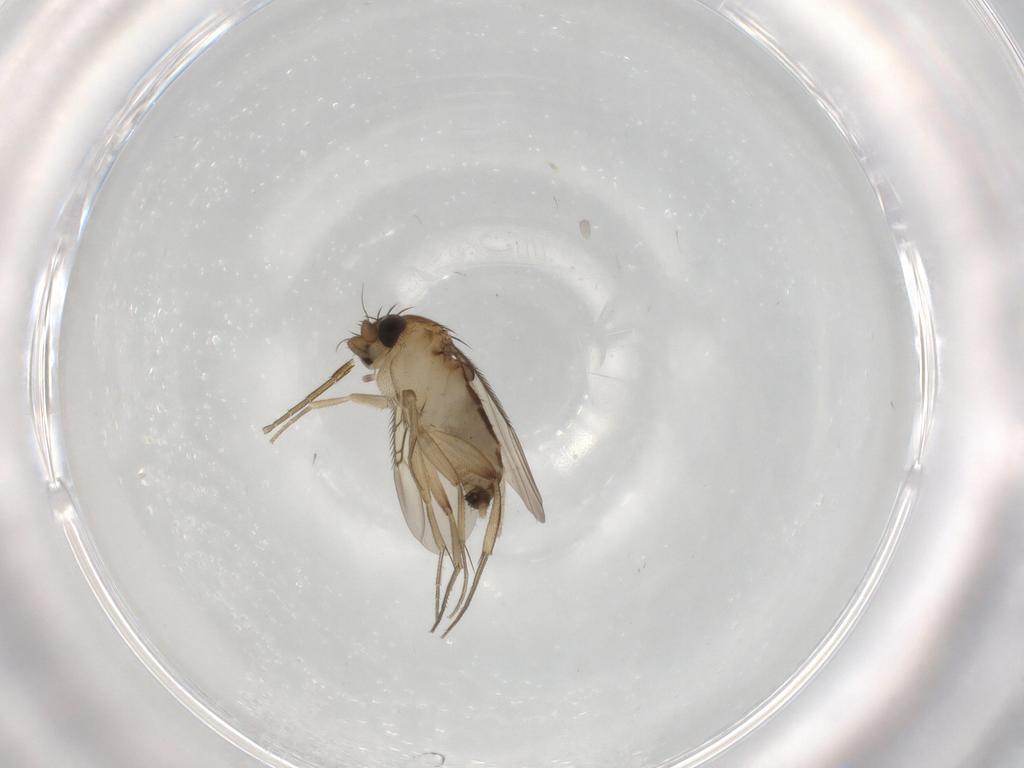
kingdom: Animalia
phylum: Arthropoda
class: Insecta
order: Diptera
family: Phoridae
